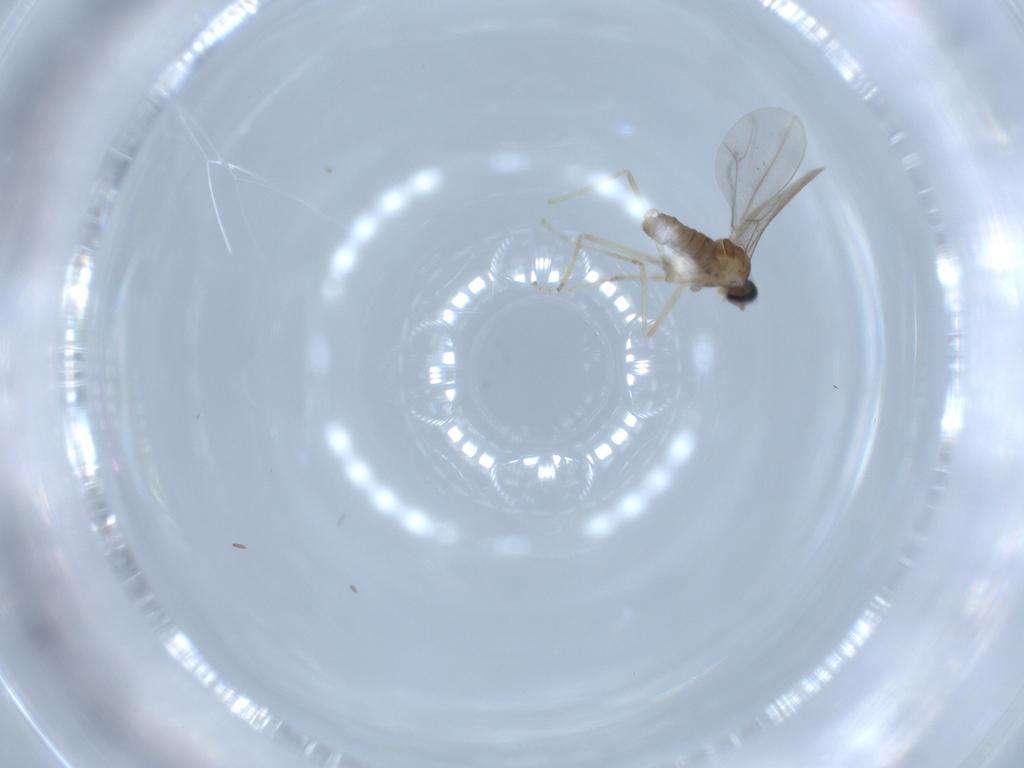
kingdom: Animalia
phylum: Arthropoda
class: Insecta
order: Diptera
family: Cecidomyiidae
